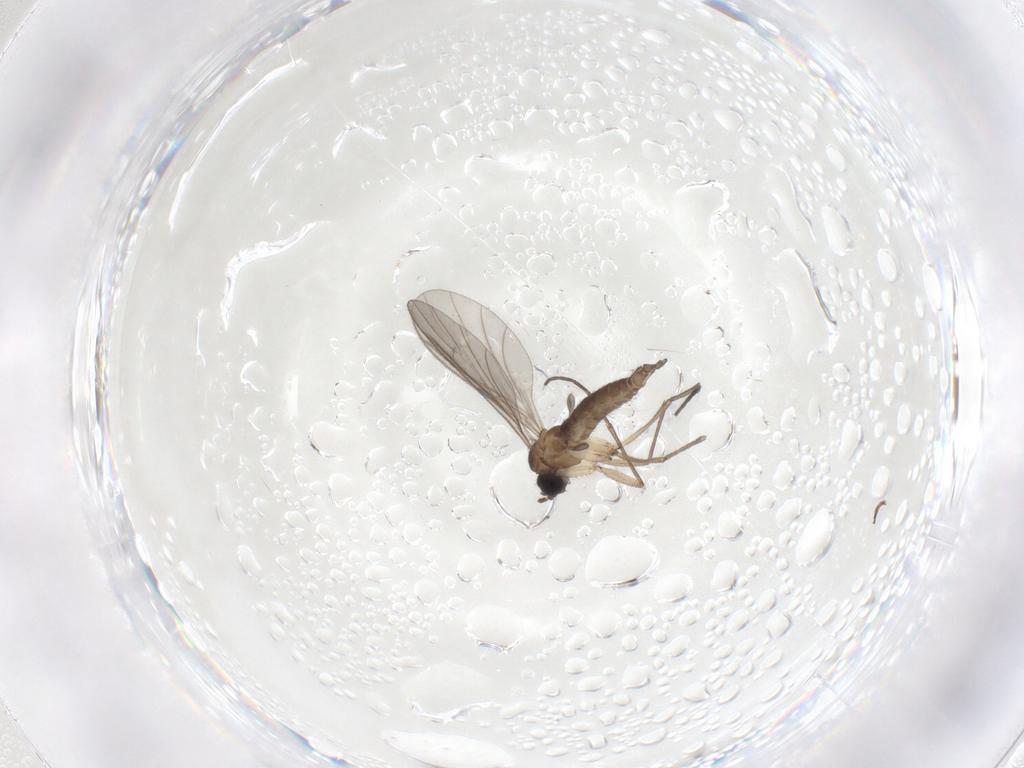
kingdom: Animalia
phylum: Arthropoda
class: Insecta
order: Diptera
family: Sciaridae
